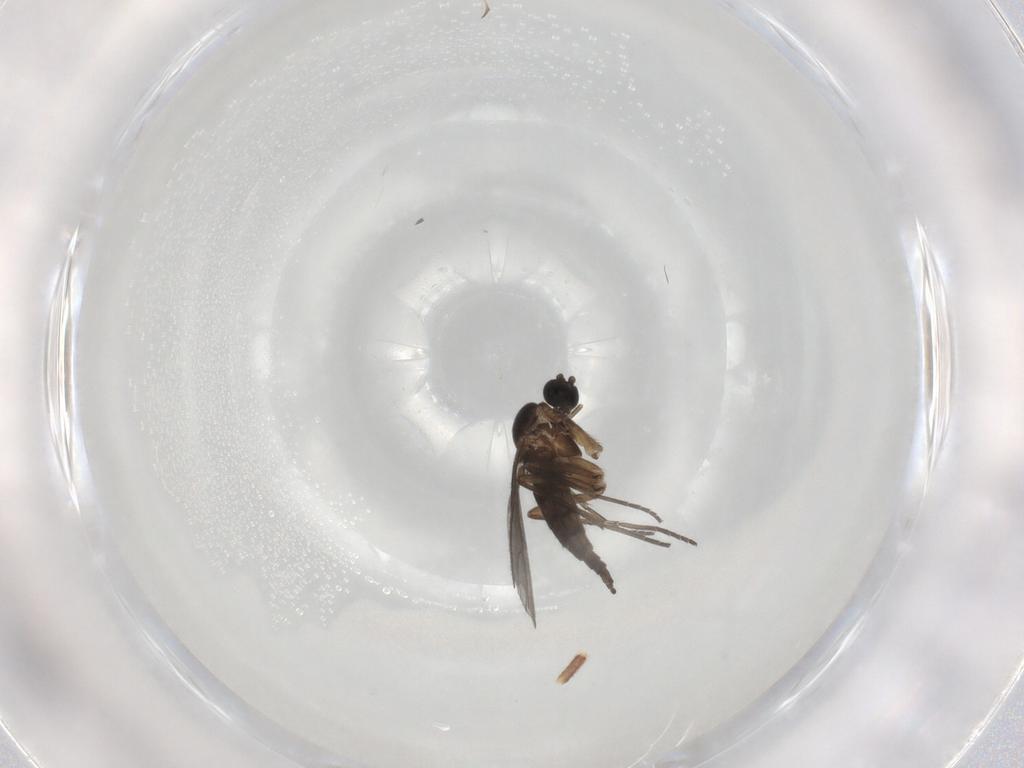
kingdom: Animalia
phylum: Arthropoda
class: Insecta
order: Diptera
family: Sciaridae
